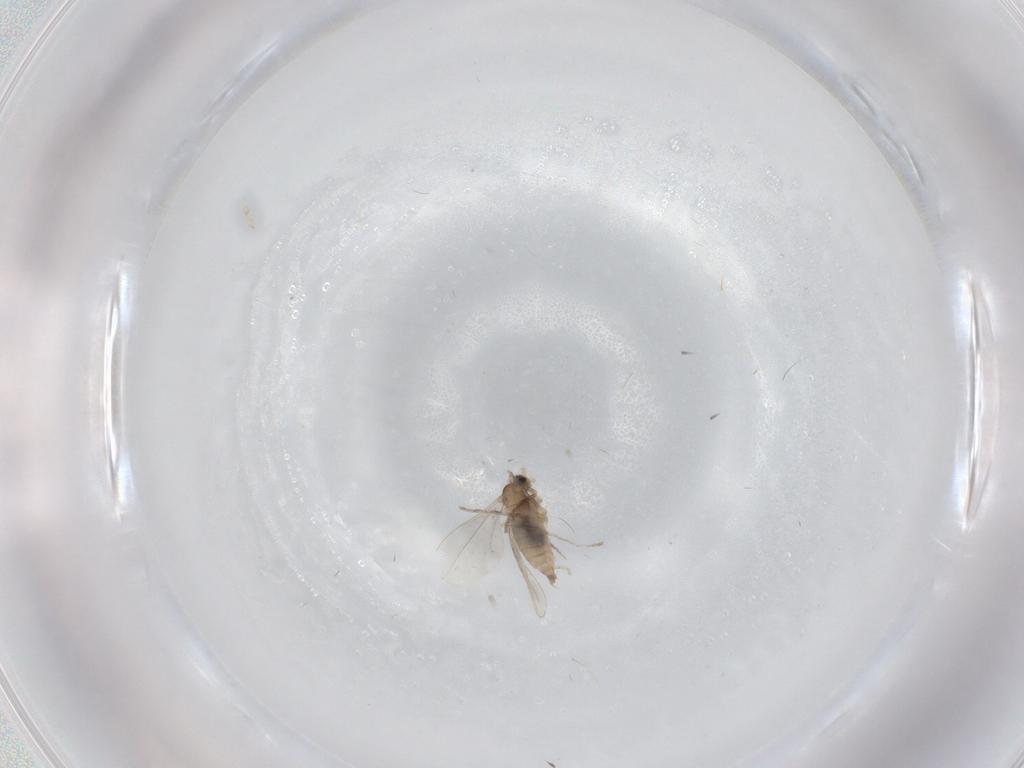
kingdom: Animalia
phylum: Arthropoda
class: Insecta
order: Diptera
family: Cecidomyiidae
